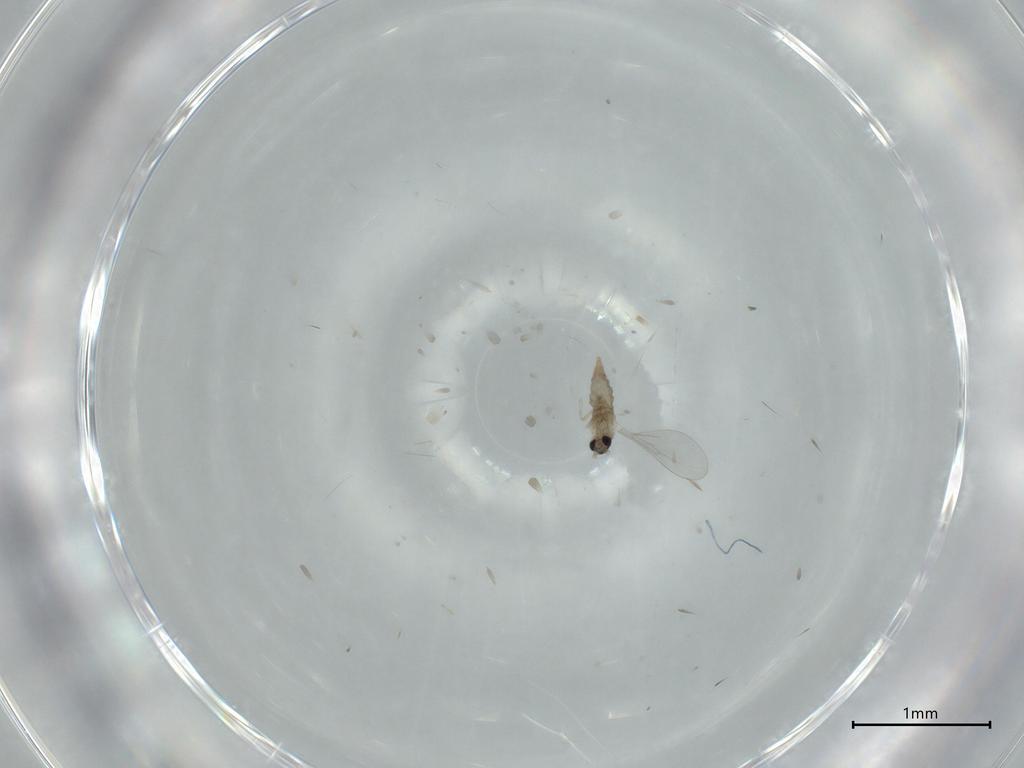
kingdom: Animalia
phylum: Arthropoda
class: Insecta
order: Diptera
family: Cecidomyiidae
